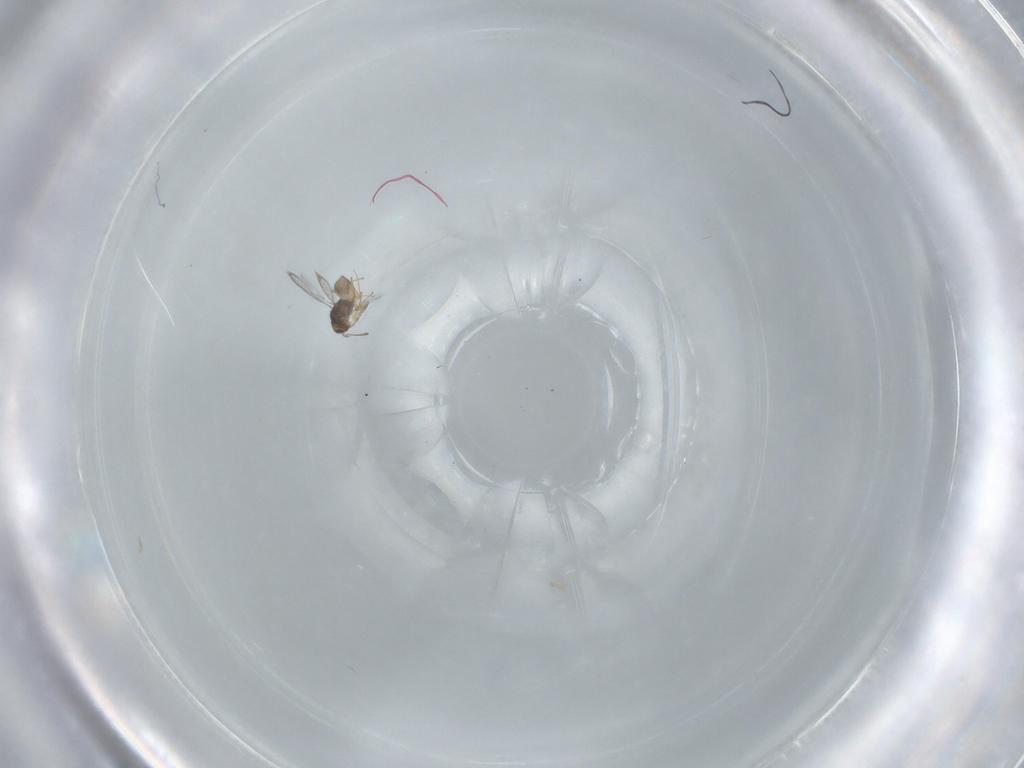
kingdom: Animalia
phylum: Arthropoda
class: Insecta
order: Hymenoptera
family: Mymaridae
